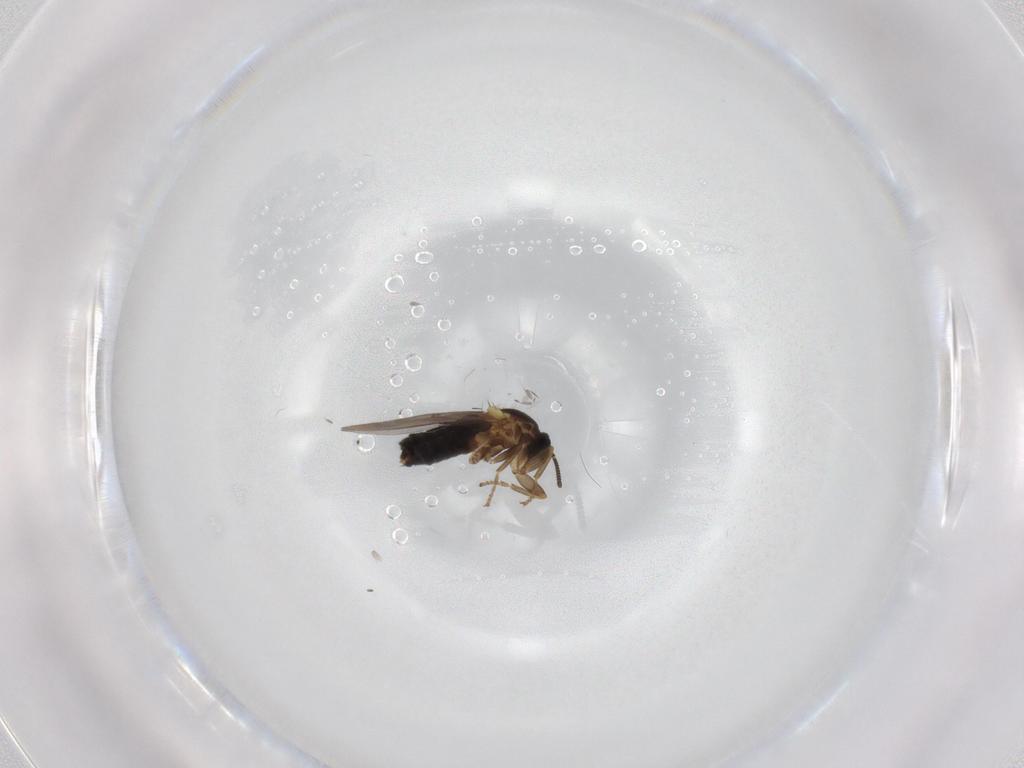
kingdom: Animalia
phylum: Arthropoda
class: Insecta
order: Diptera
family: Scatopsidae
